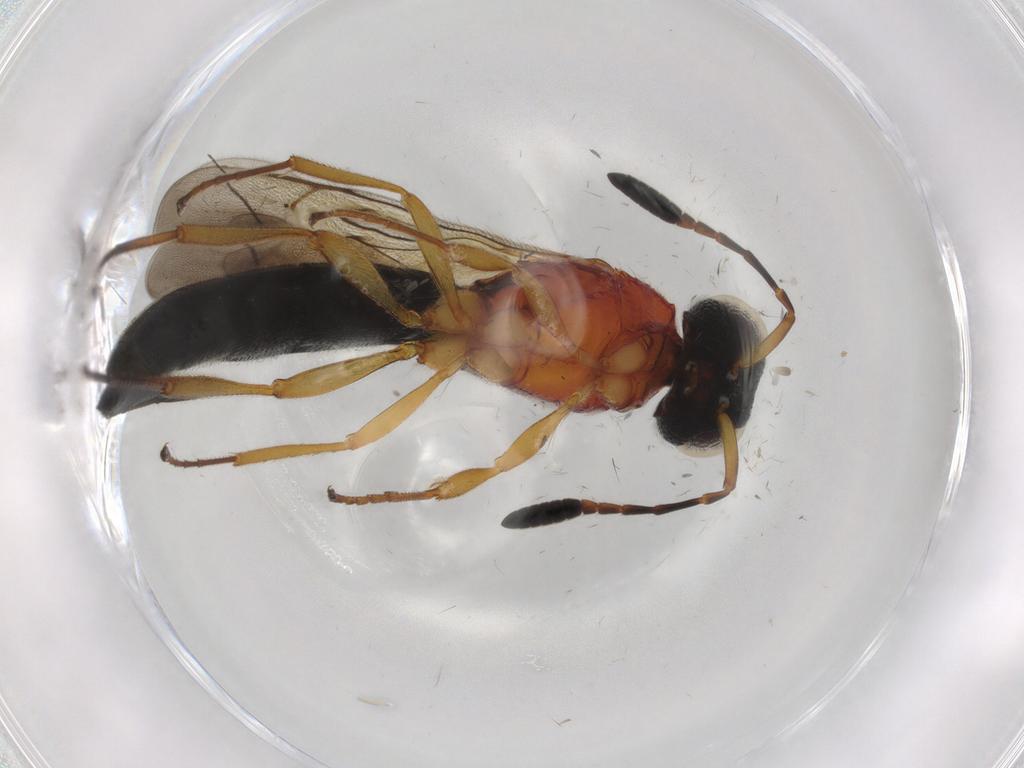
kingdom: Animalia
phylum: Arthropoda
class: Insecta
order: Hymenoptera
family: Scelionidae
